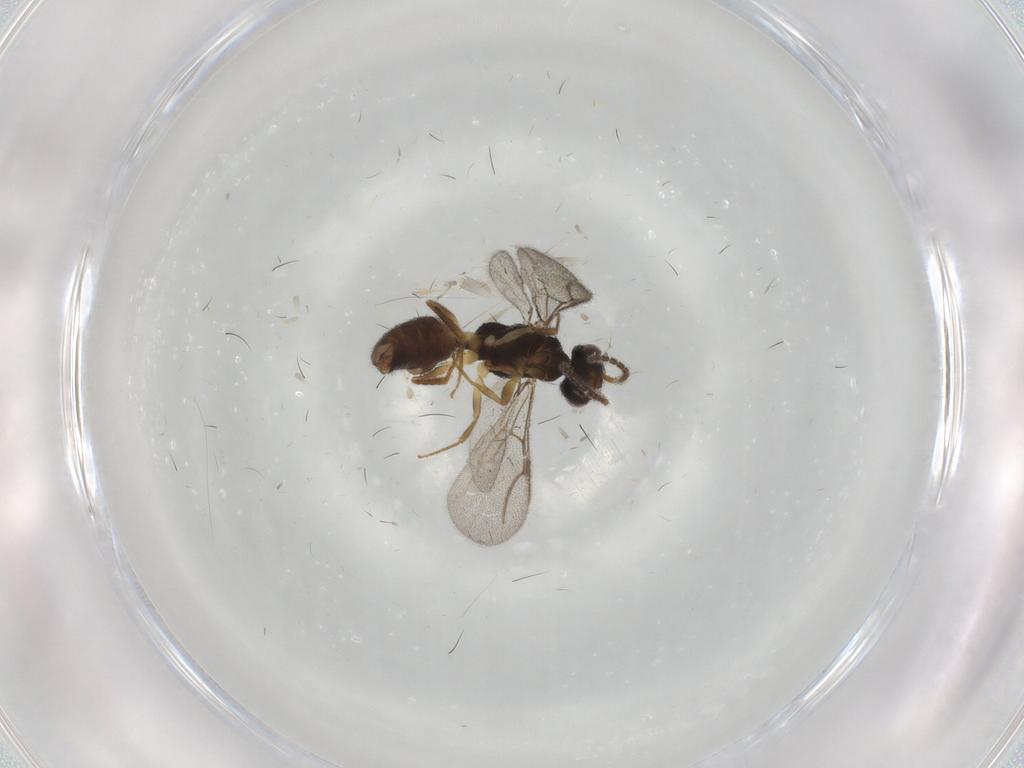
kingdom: Animalia
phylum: Arthropoda
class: Insecta
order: Hymenoptera
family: Bethylidae
